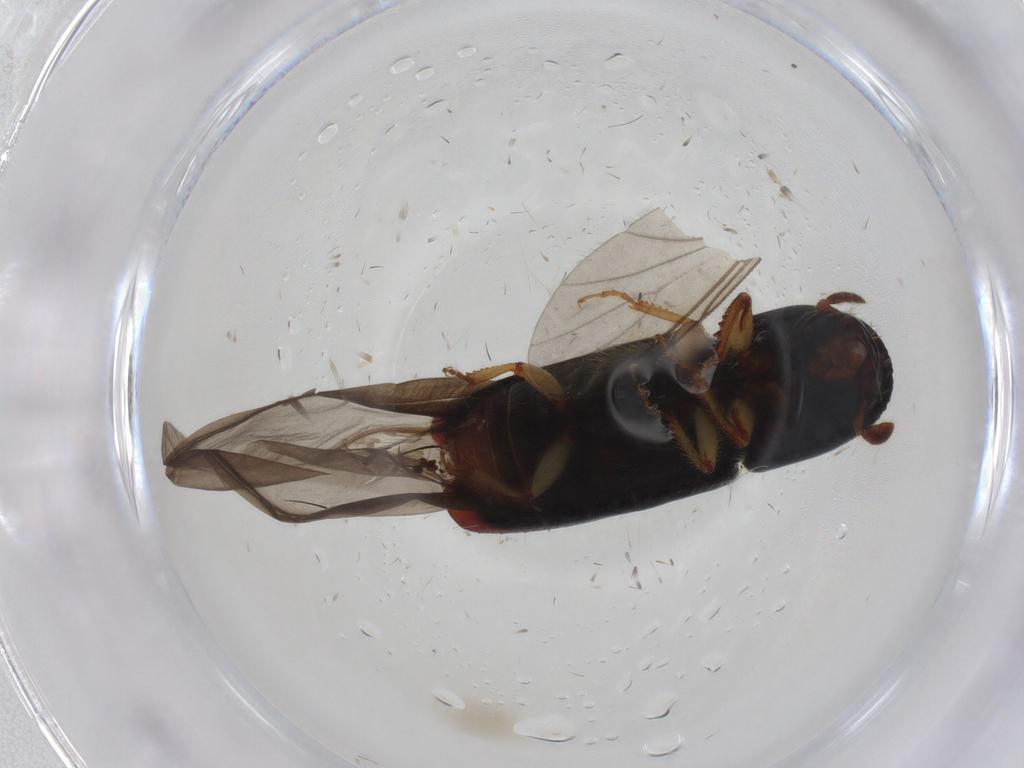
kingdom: Animalia
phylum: Arthropoda
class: Insecta
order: Coleoptera
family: Curculionidae
